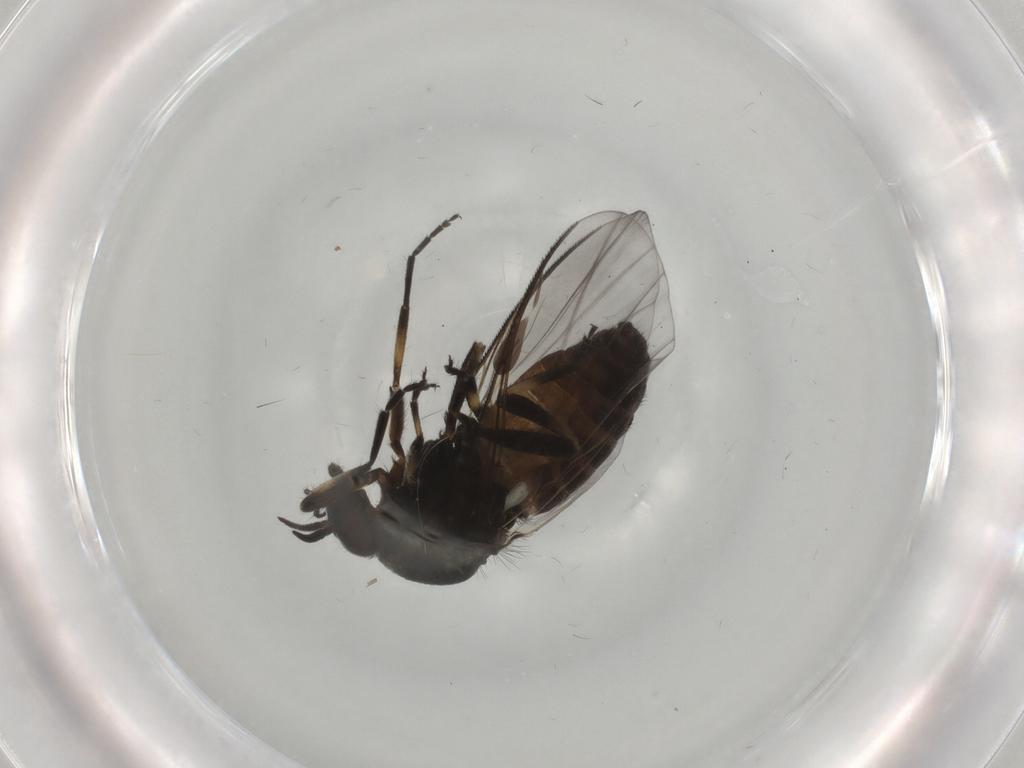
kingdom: Animalia
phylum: Arthropoda
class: Insecta
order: Diptera
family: Simuliidae
